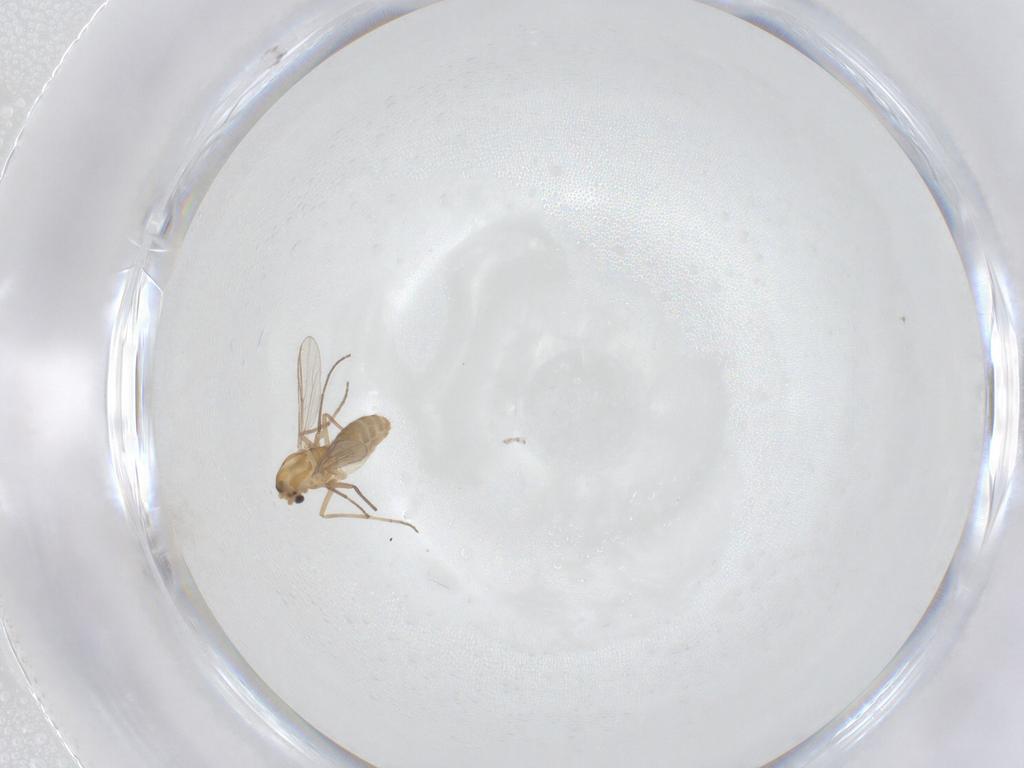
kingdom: Animalia
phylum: Arthropoda
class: Insecta
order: Diptera
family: Chironomidae
